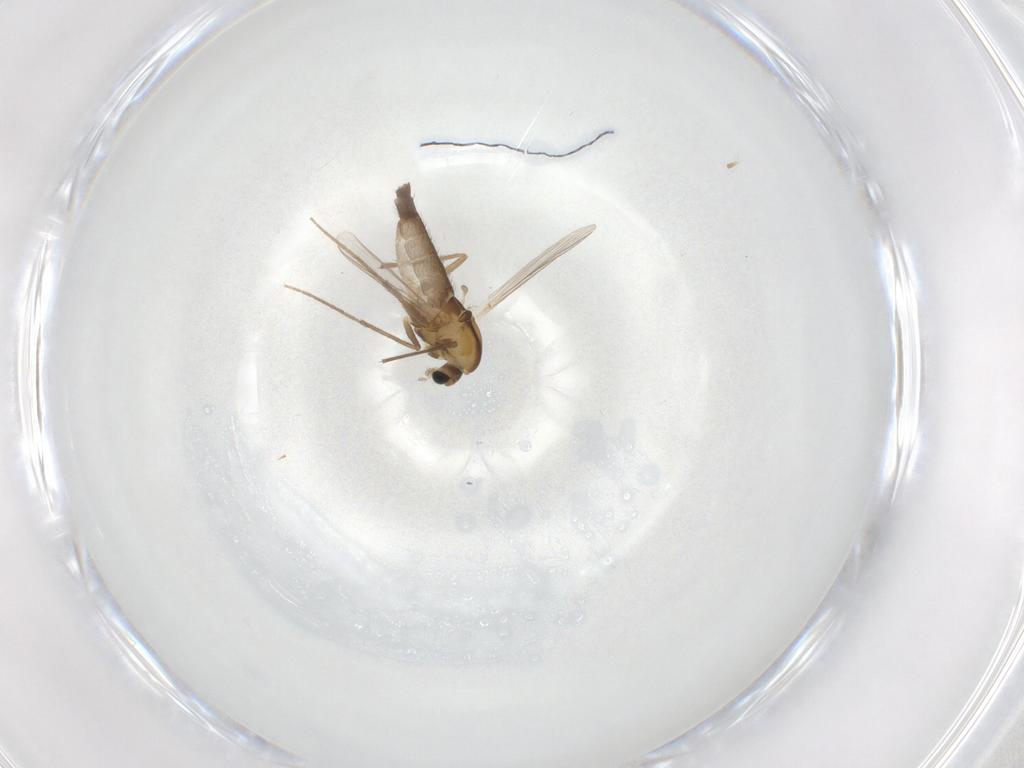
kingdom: Animalia
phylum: Arthropoda
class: Insecta
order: Diptera
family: Chironomidae
